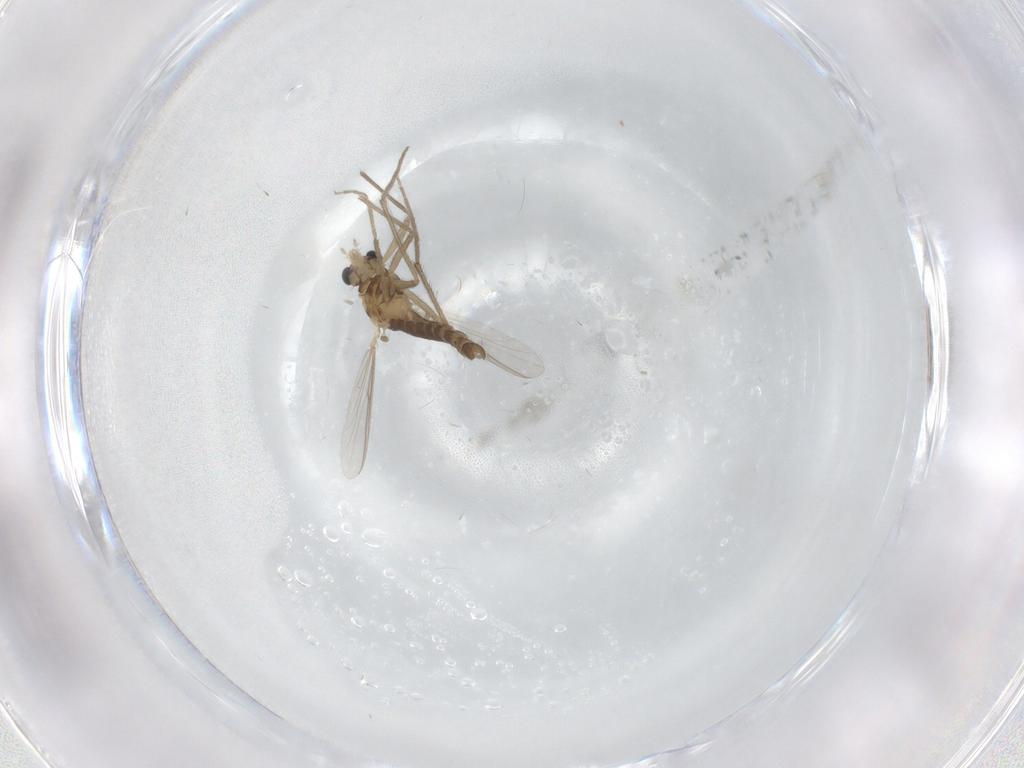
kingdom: Animalia
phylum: Arthropoda
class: Insecta
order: Diptera
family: Chironomidae
